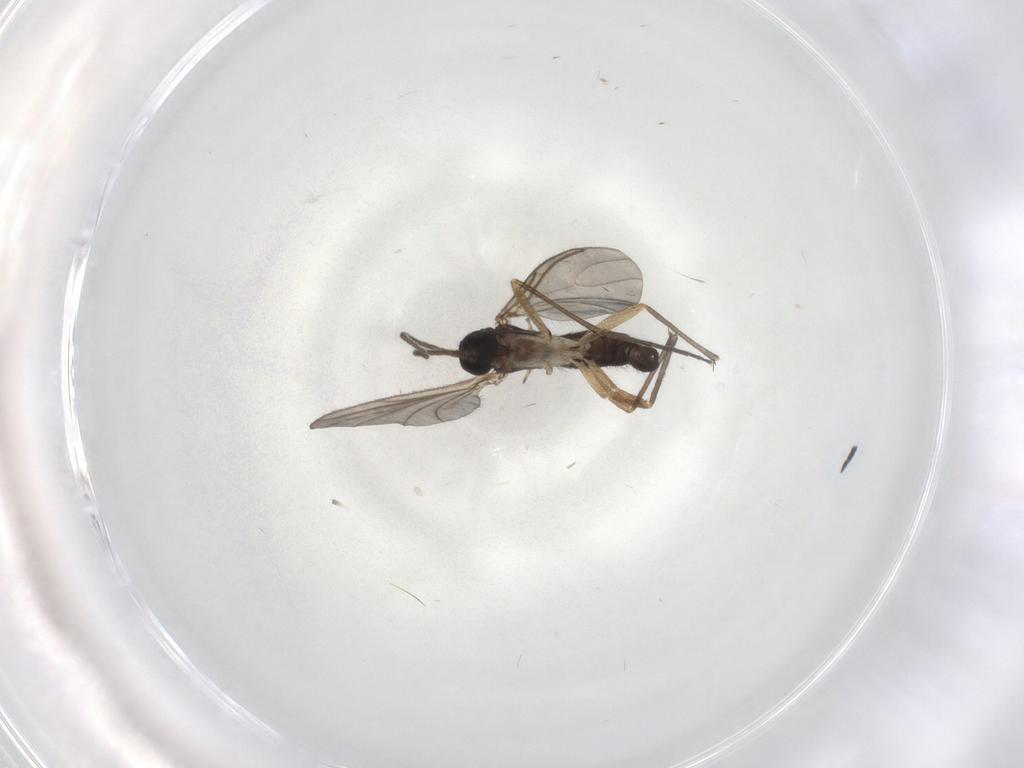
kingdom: Animalia
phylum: Arthropoda
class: Insecta
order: Diptera
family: Sciaridae
